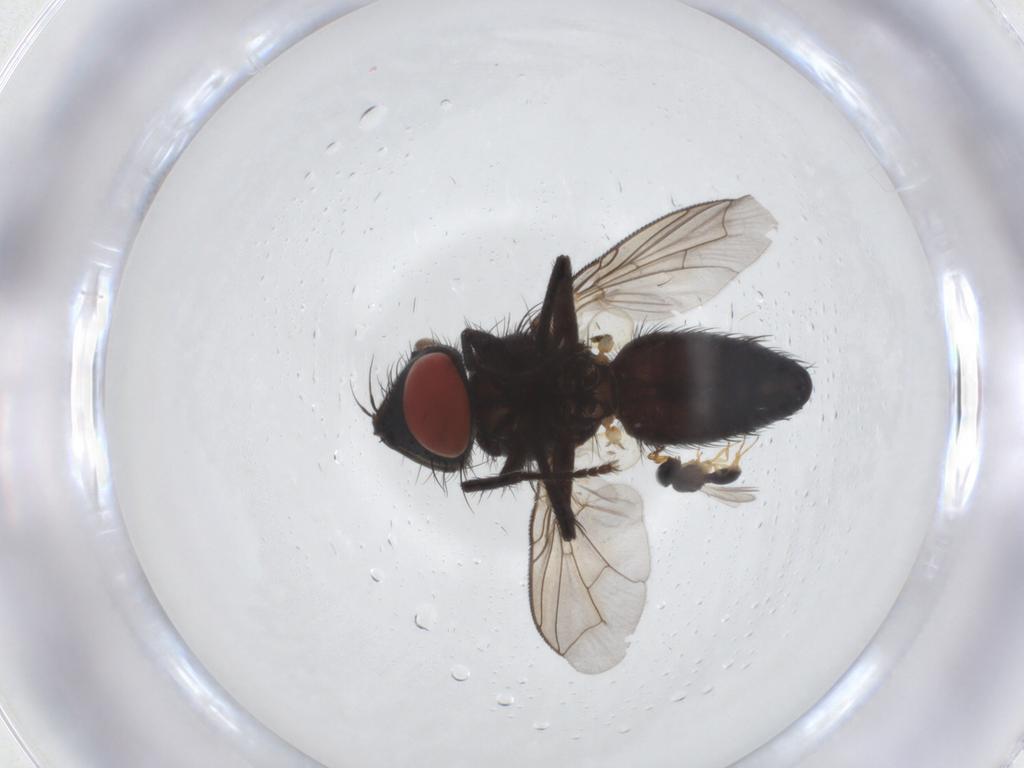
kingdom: Animalia
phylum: Arthropoda
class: Insecta
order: Diptera
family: Sarcophagidae
